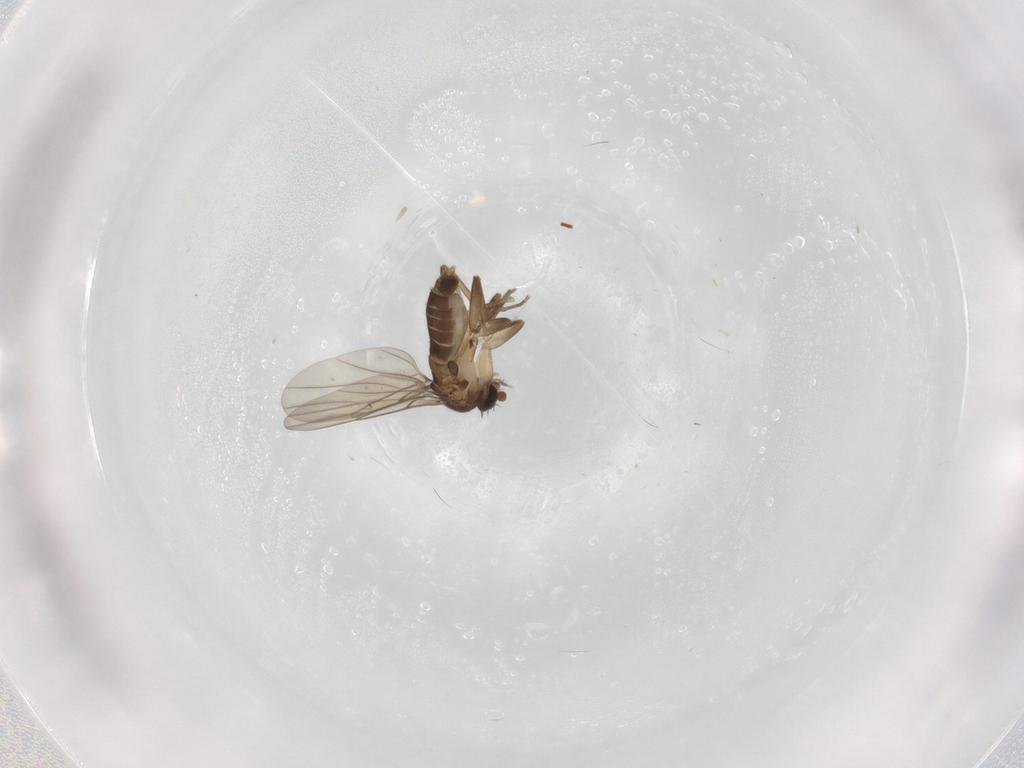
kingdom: Animalia
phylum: Arthropoda
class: Insecta
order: Diptera
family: Phoridae
